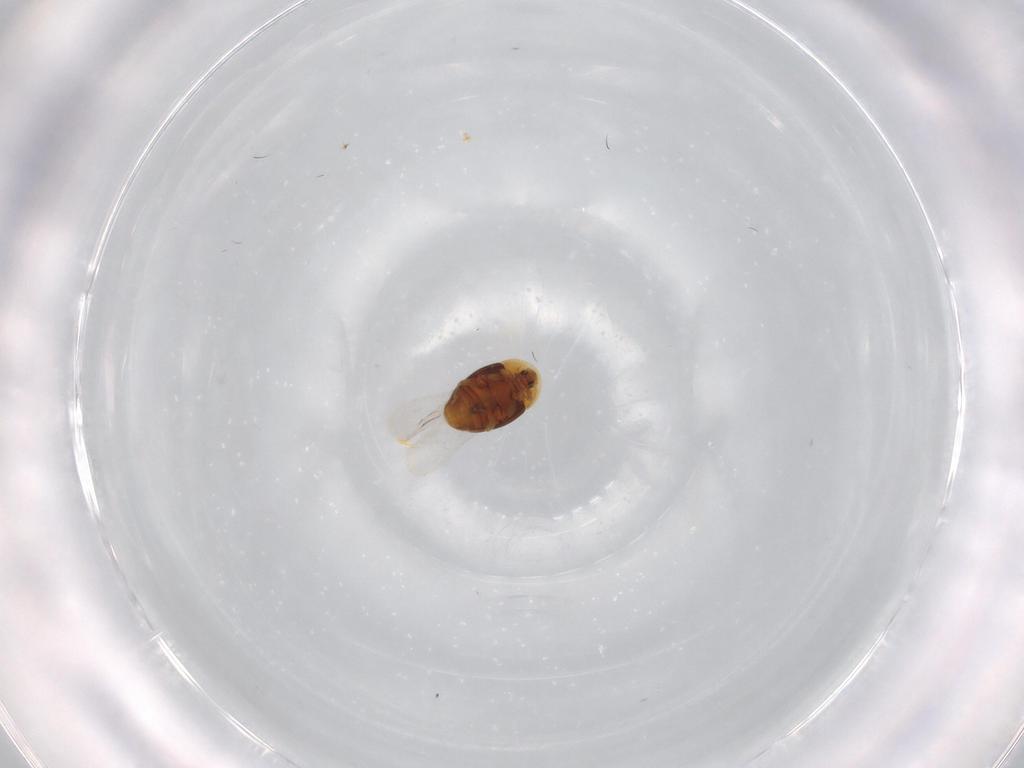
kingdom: Animalia
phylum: Arthropoda
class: Insecta
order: Coleoptera
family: Corylophidae
